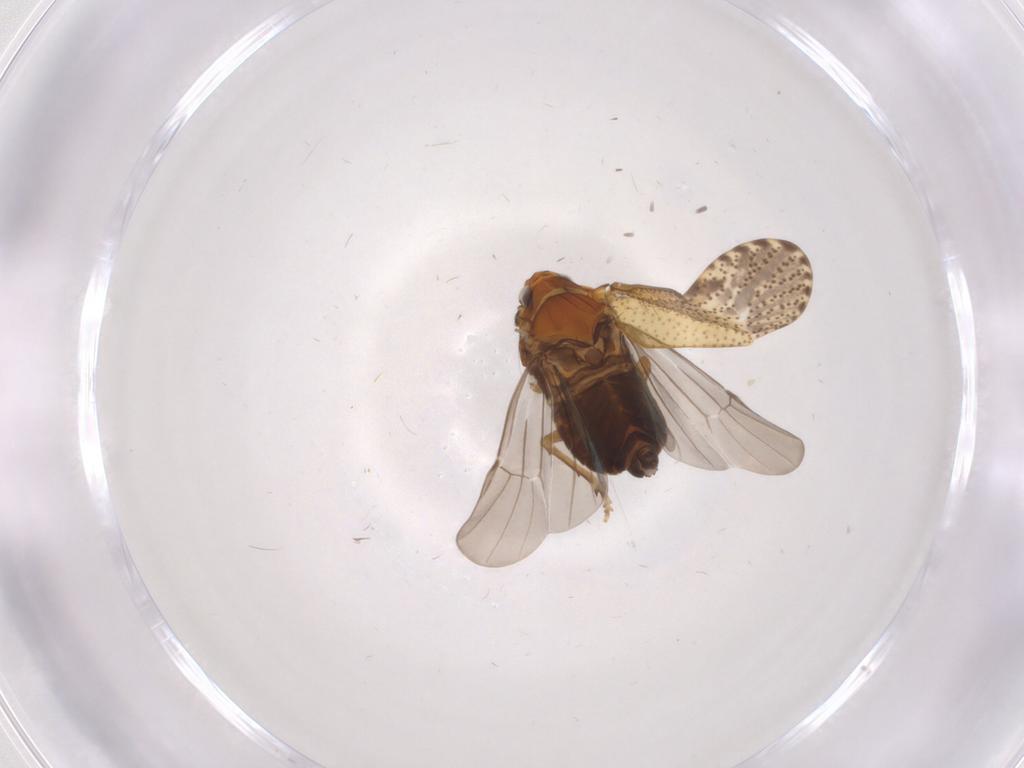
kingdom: Animalia
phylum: Arthropoda
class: Insecta
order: Hemiptera
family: Delphacidae
